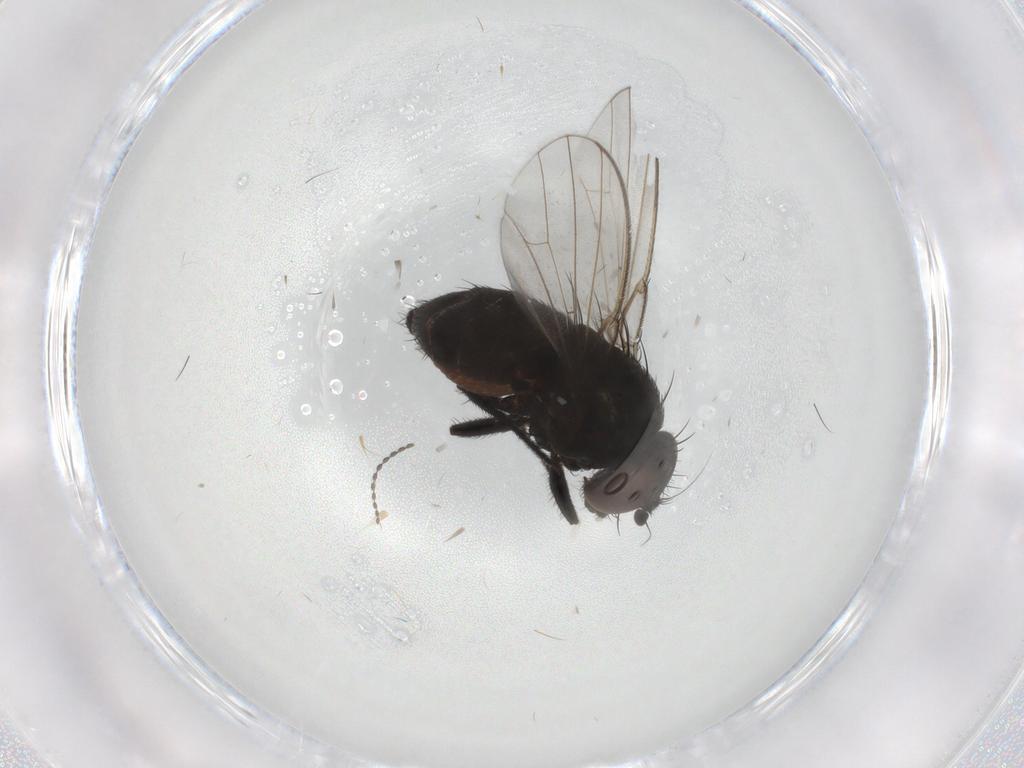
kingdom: Animalia
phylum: Arthropoda
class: Insecta
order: Diptera
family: Milichiidae
